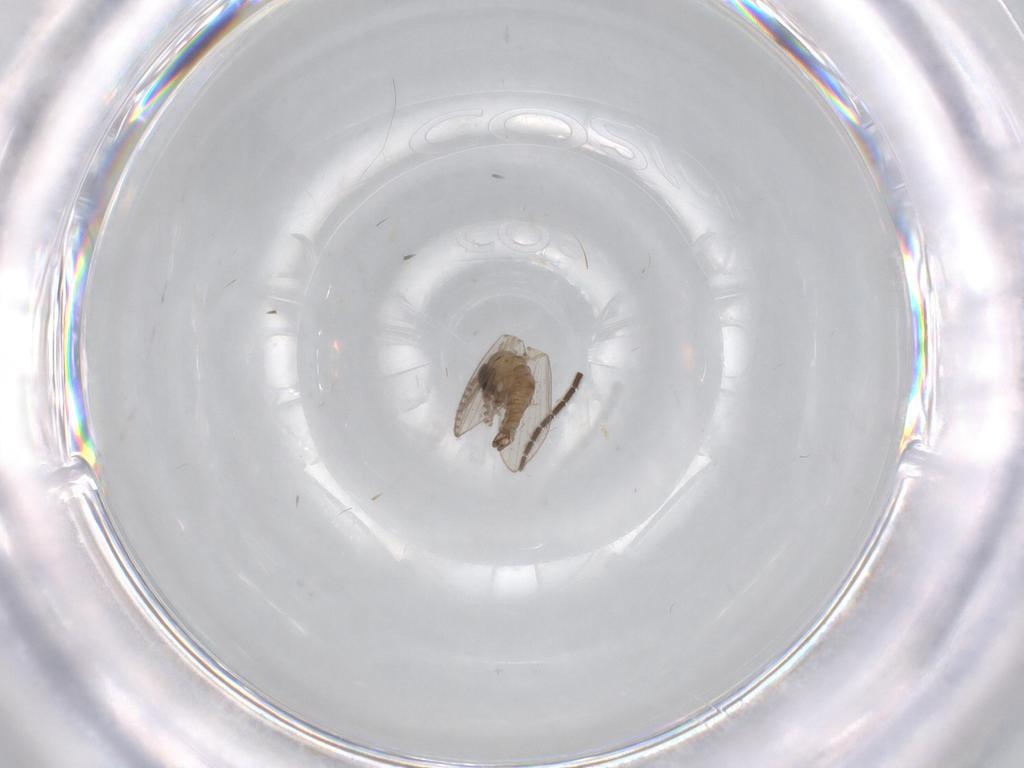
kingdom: Animalia
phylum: Arthropoda
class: Insecta
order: Diptera
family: Sciaridae
